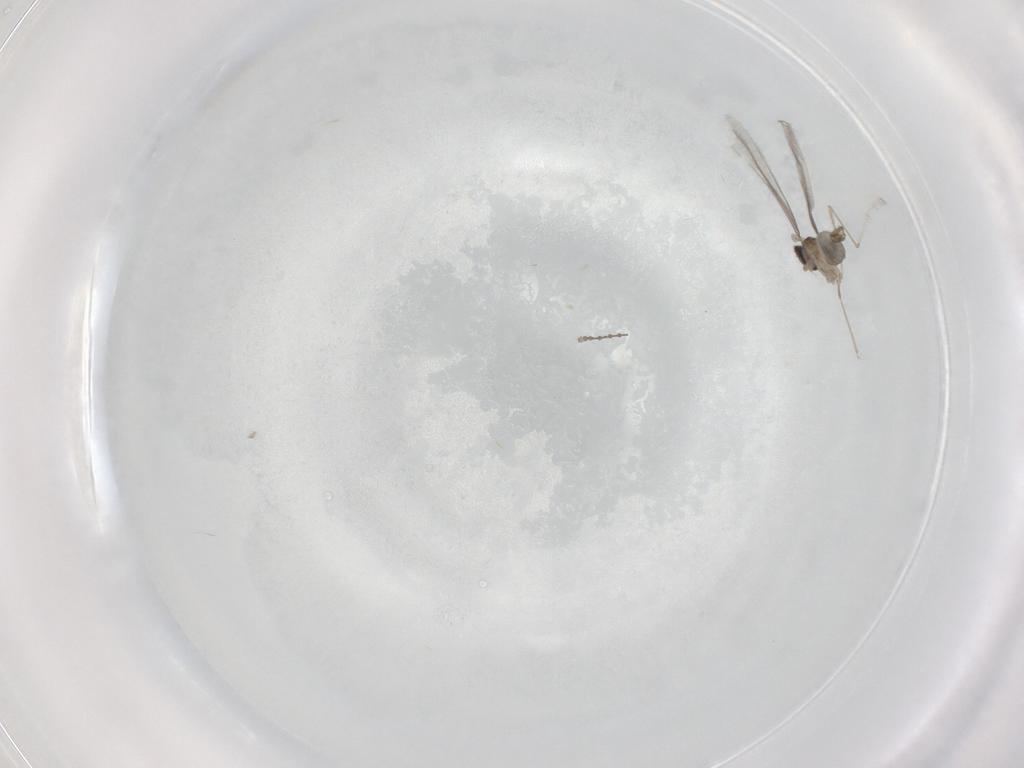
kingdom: Animalia
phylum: Arthropoda
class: Insecta
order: Diptera
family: Cecidomyiidae
